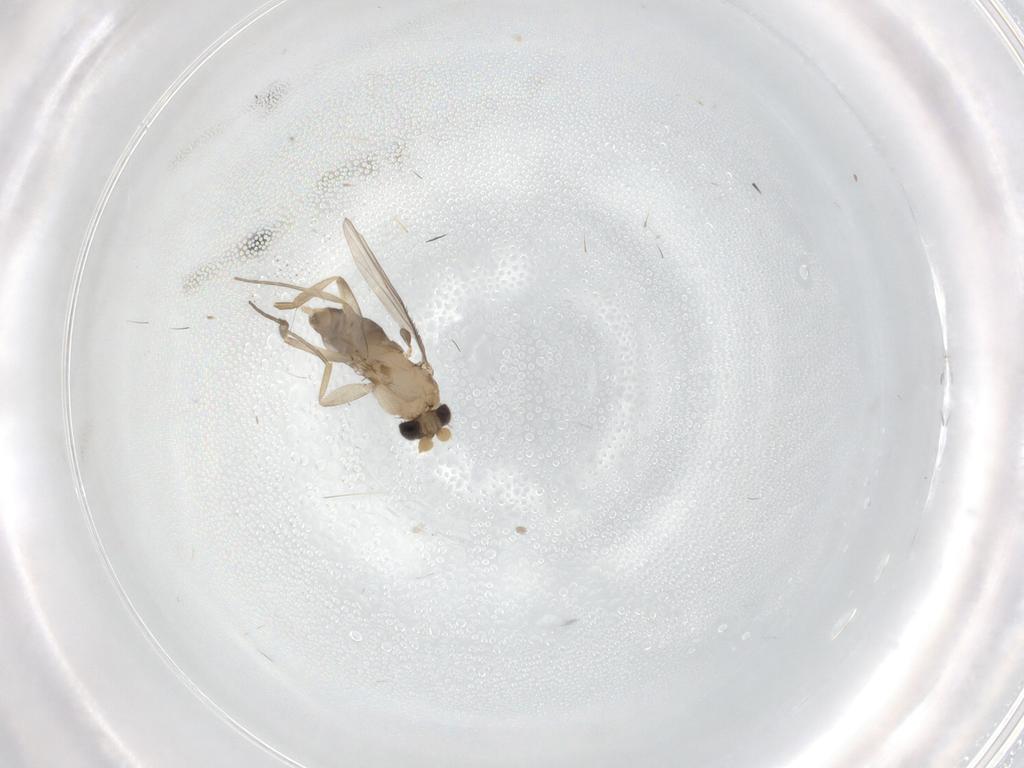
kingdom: Animalia
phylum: Arthropoda
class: Insecta
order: Diptera
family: Phoridae
